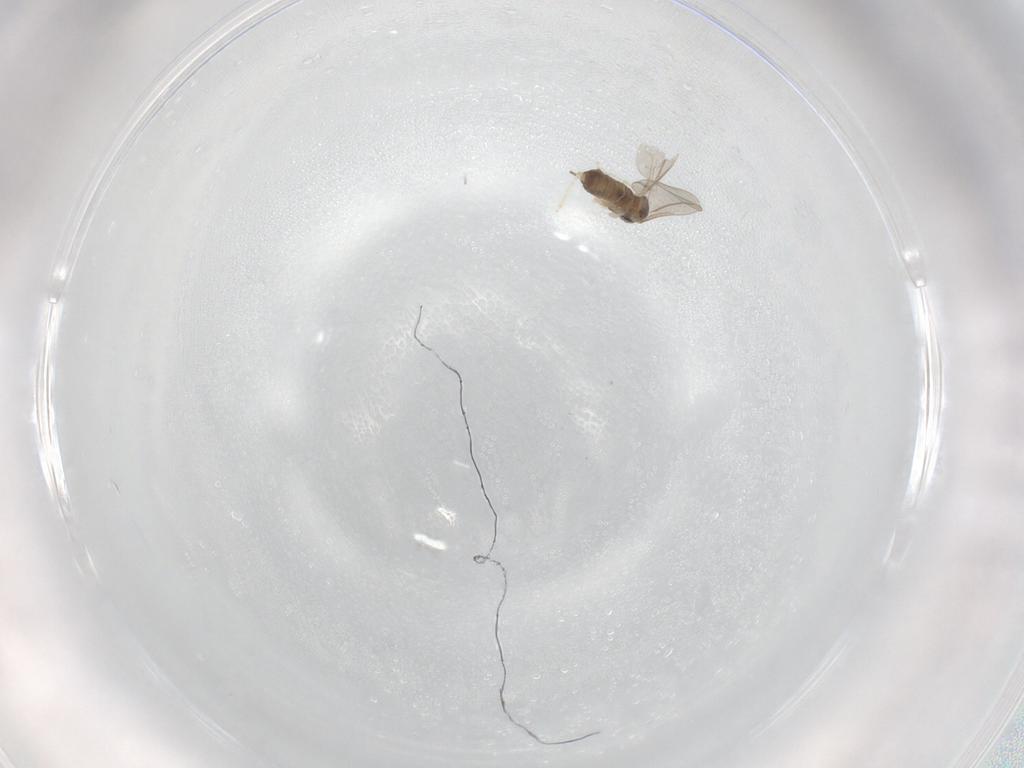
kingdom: Animalia
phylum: Arthropoda
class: Insecta
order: Diptera
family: Cecidomyiidae
